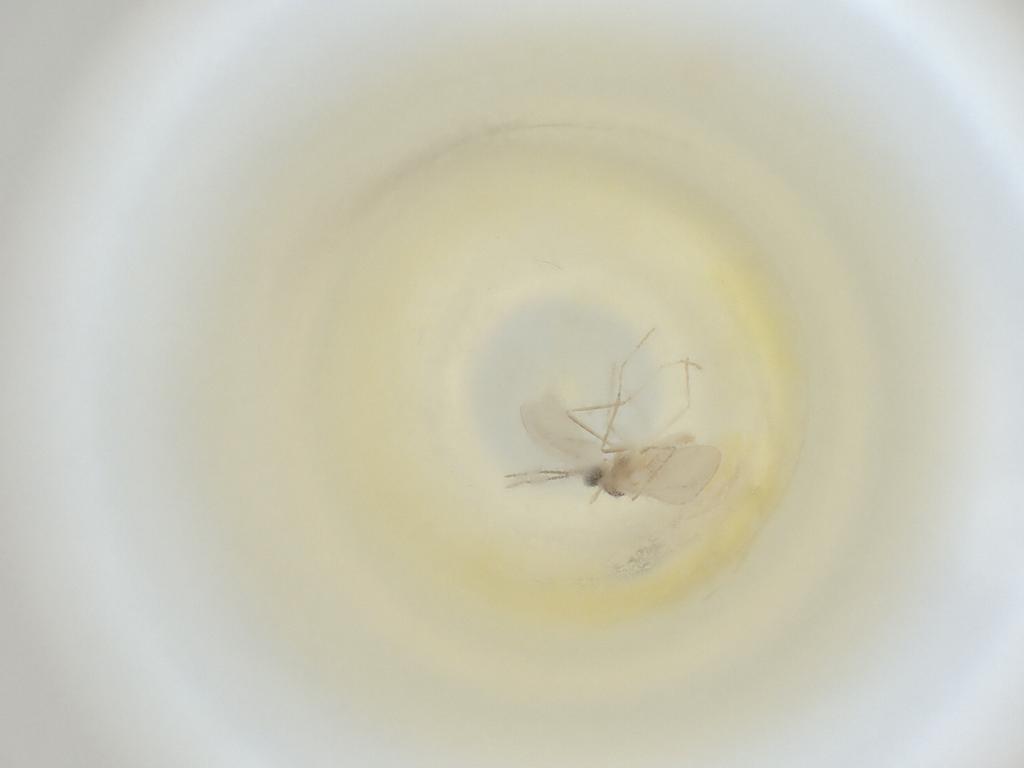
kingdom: Animalia
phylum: Arthropoda
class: Insecta
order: Diptera
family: Cecidomyiidae
